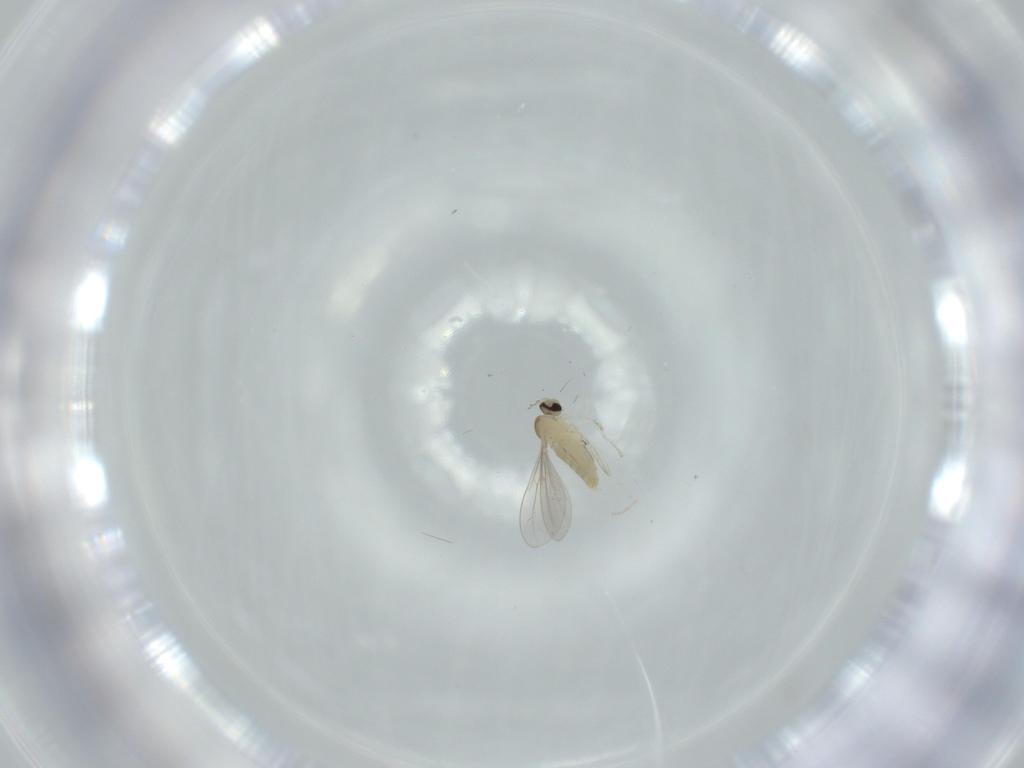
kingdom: Animalia
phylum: Arthropoda
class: Insecta
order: Diptera
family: Cecidomyiidae
